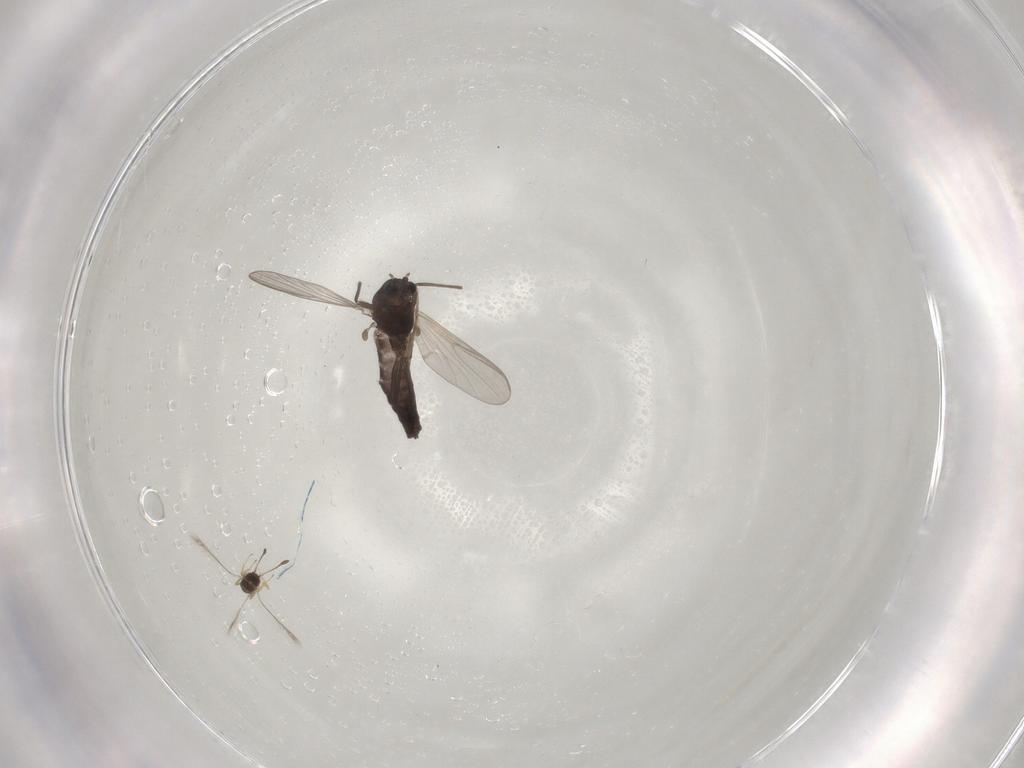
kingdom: Animalia
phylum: Arthropoda
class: Insecta
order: Diptera
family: Chironomidae
